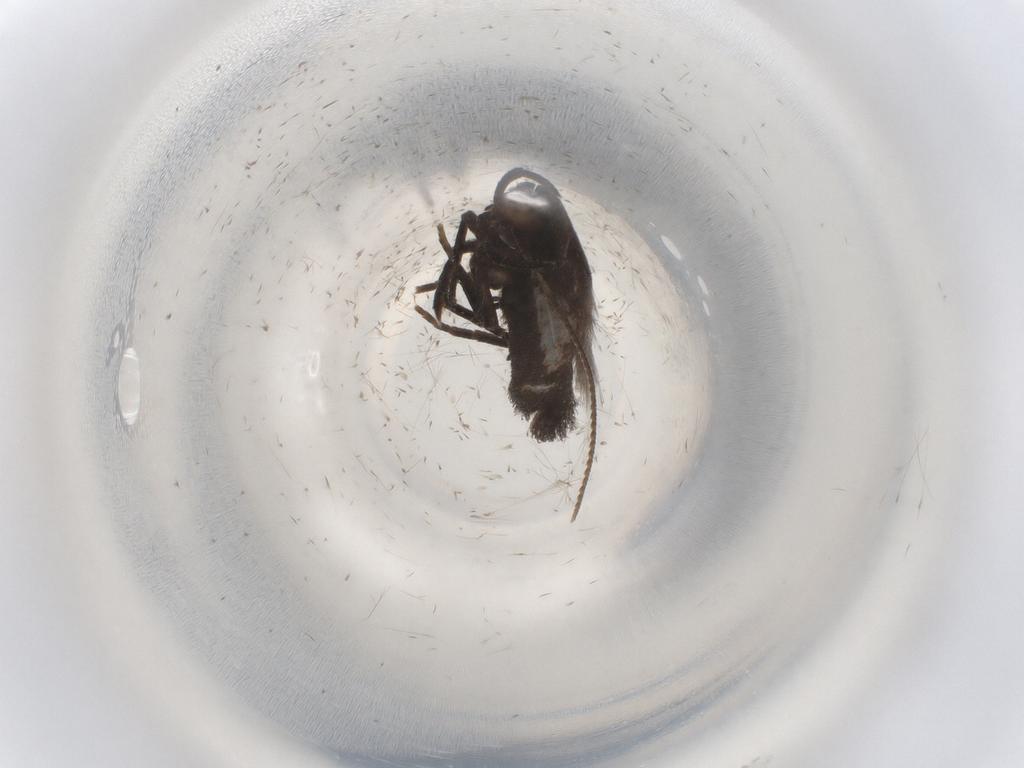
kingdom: Animalia
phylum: Arthropoda
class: Insecta
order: Lepidoptera
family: Cosmopterigidae
